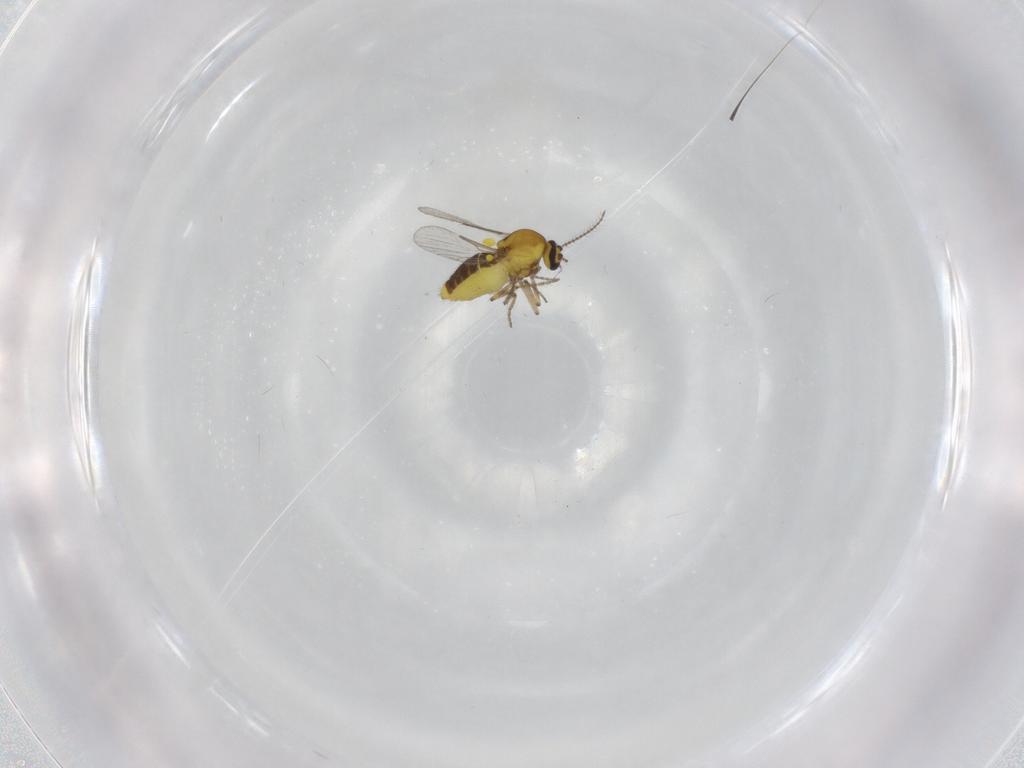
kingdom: Animalia
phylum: Arthropoda
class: Insecta
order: Diptera
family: Ceratopogonidae
